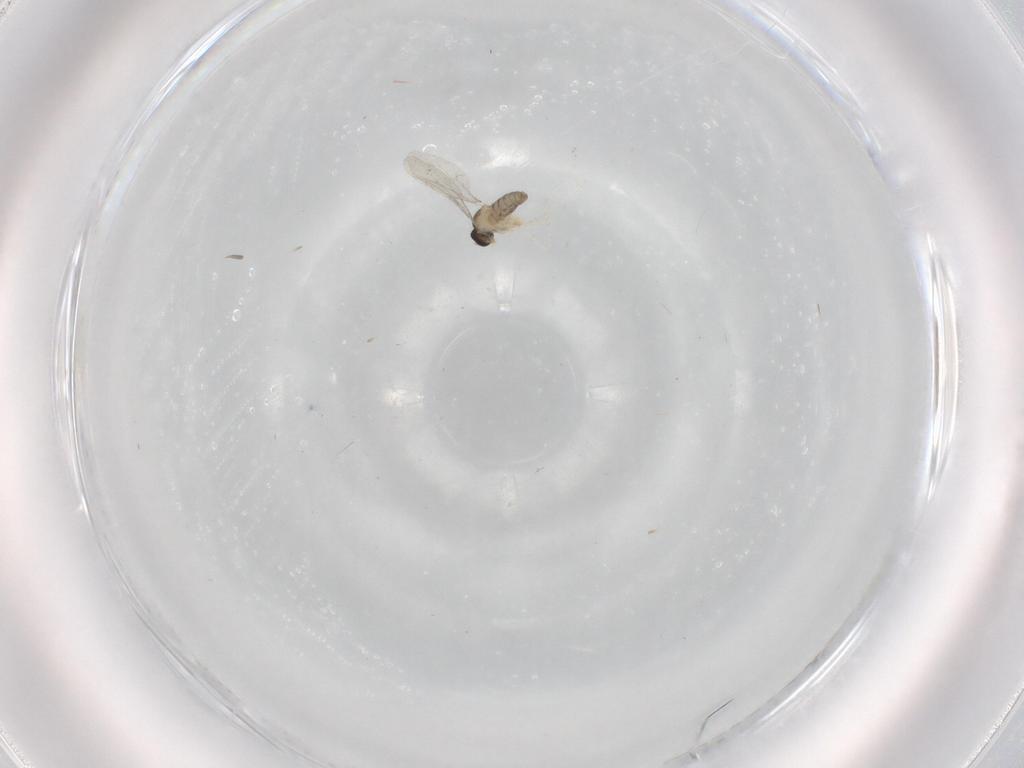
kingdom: Animalia
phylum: Arthropoda
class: Insecta
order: Diptera
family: Cecidomyiidae
